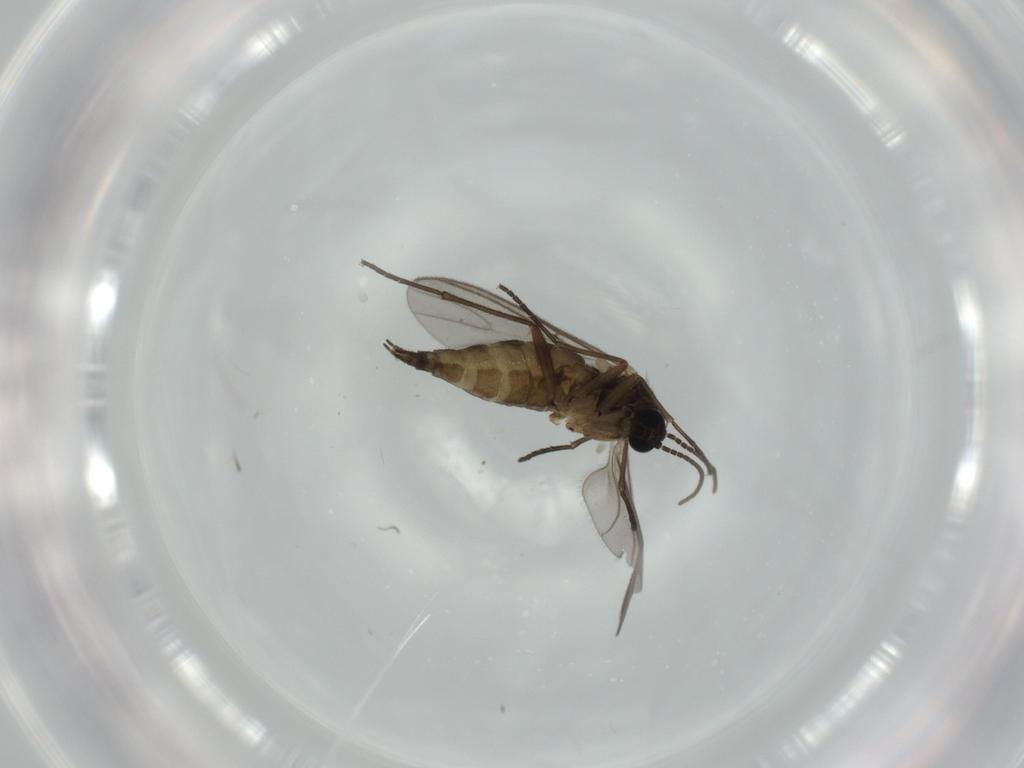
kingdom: Animalia
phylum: Arthropoda
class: Insecta
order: Diptera
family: Sciaridae
